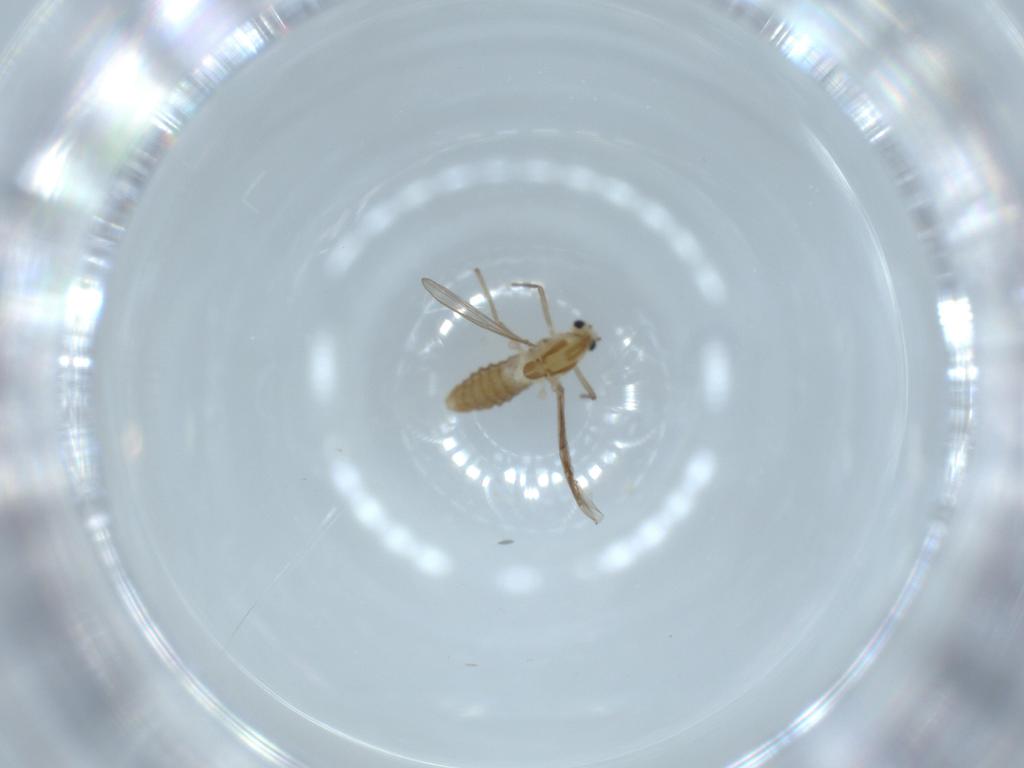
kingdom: Animalia
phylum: Arthropoda
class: Insecta
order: Diptera
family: Chironomidae
